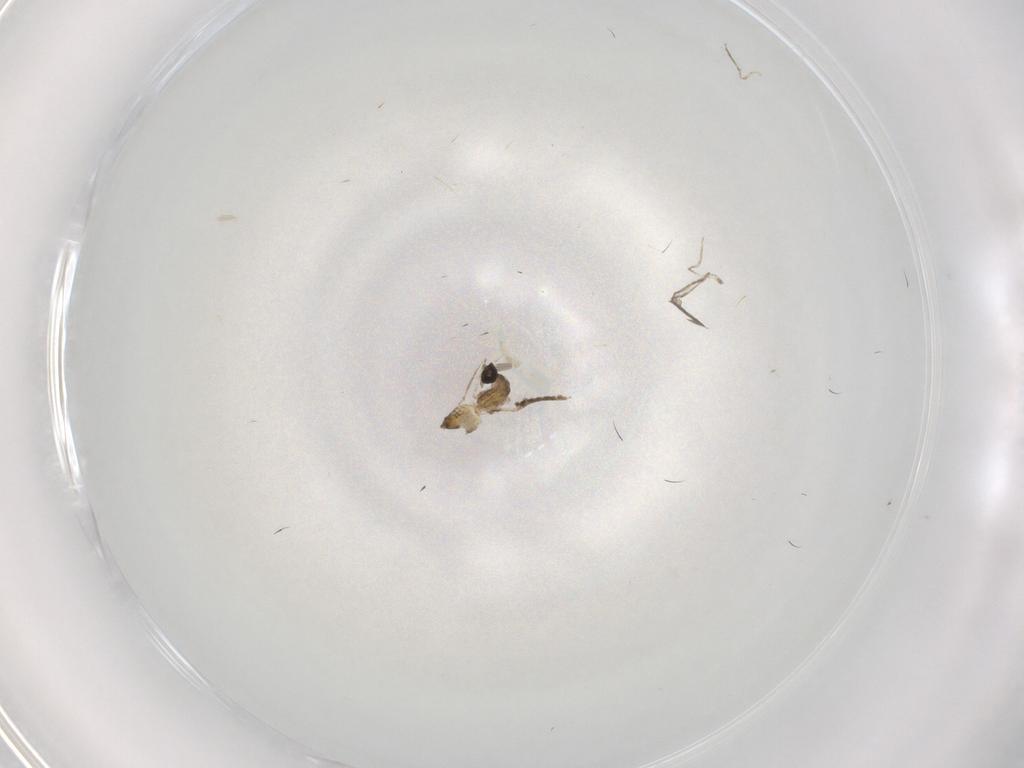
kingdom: Animalia
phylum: Arthropoda
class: Insecta
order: Diptera
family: Cecidomyiidae
